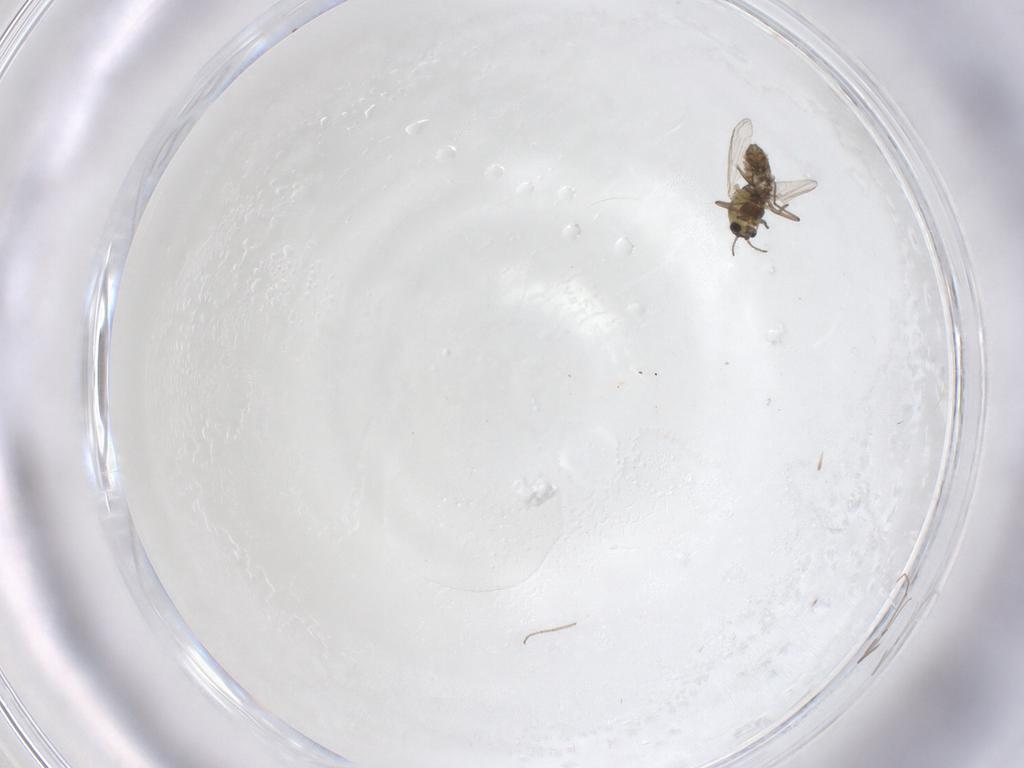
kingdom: Animalia
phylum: Arthropoda
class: Insecta
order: Diptera
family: Chironomidae
